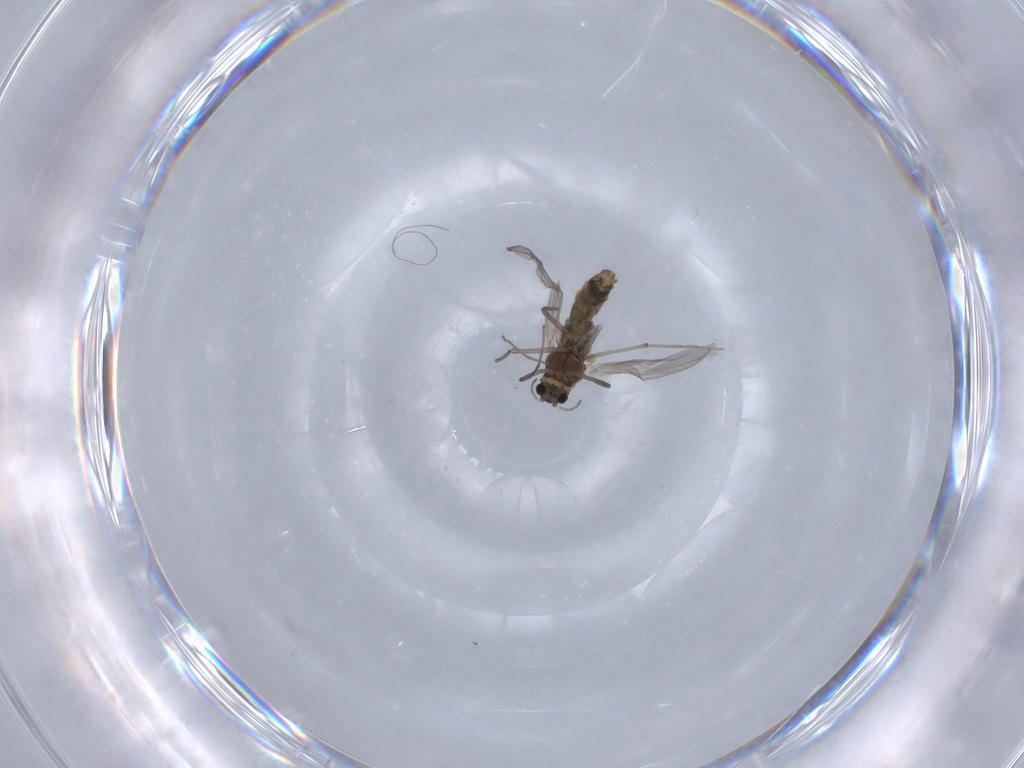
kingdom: Animalia
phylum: Arthropoda
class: Insecta
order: Diptera
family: Chironomidae
